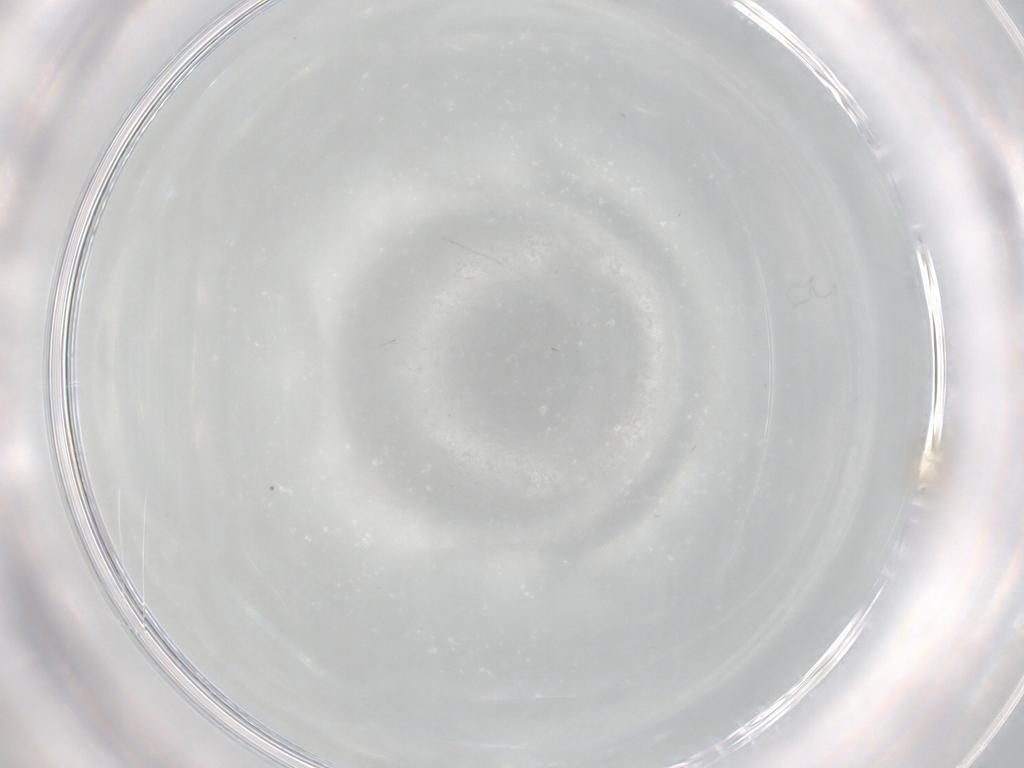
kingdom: Animalia
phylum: Arthropoda
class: Insecta
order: Diptera
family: Cecidomyiidae
